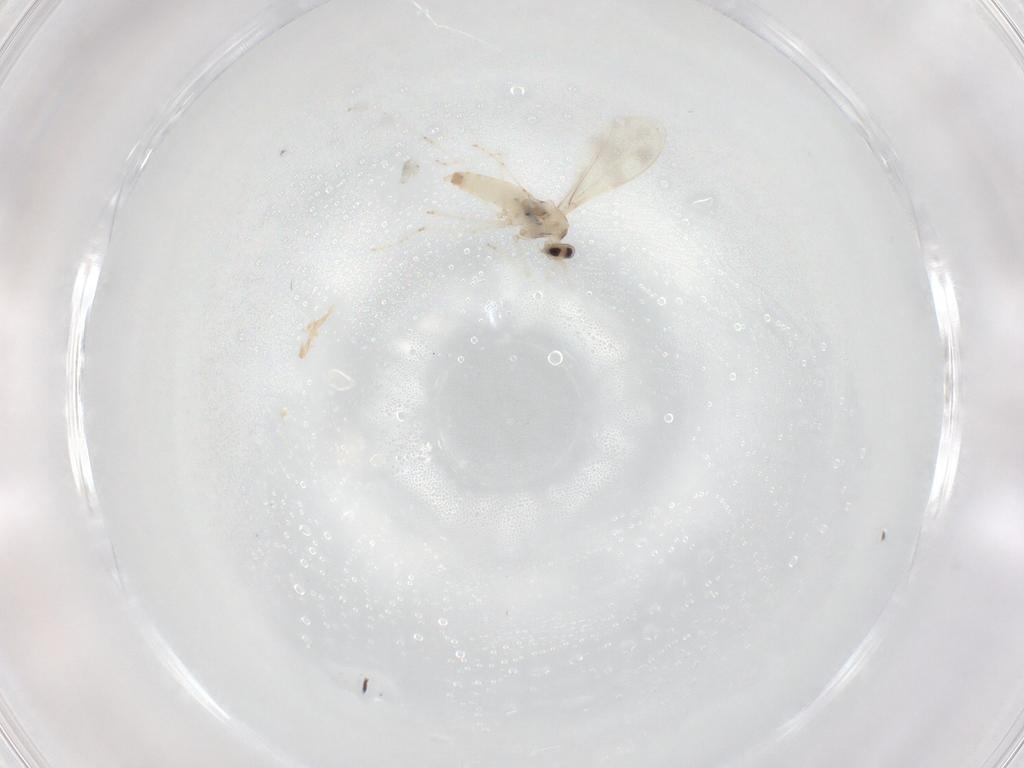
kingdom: Animalia
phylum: Arthropoda
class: Insecta
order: Diptera
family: Cecidomyiidae
